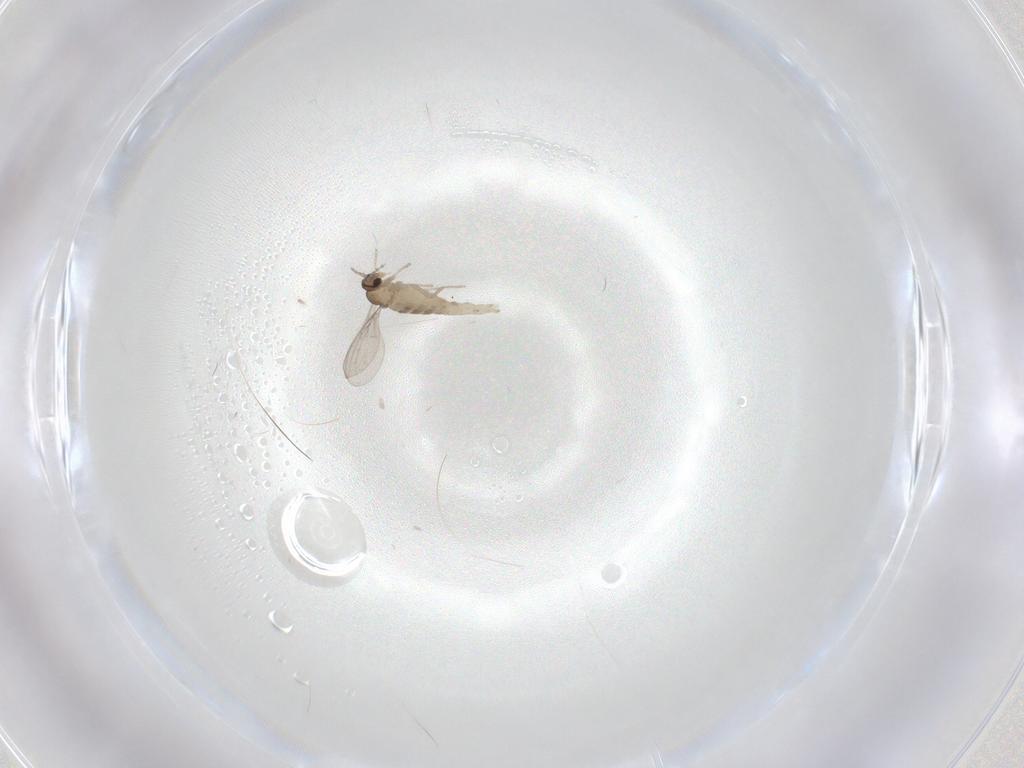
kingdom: Animalia
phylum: Arthropoda
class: Insecta
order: Diptera
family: Cecidomyiidae
